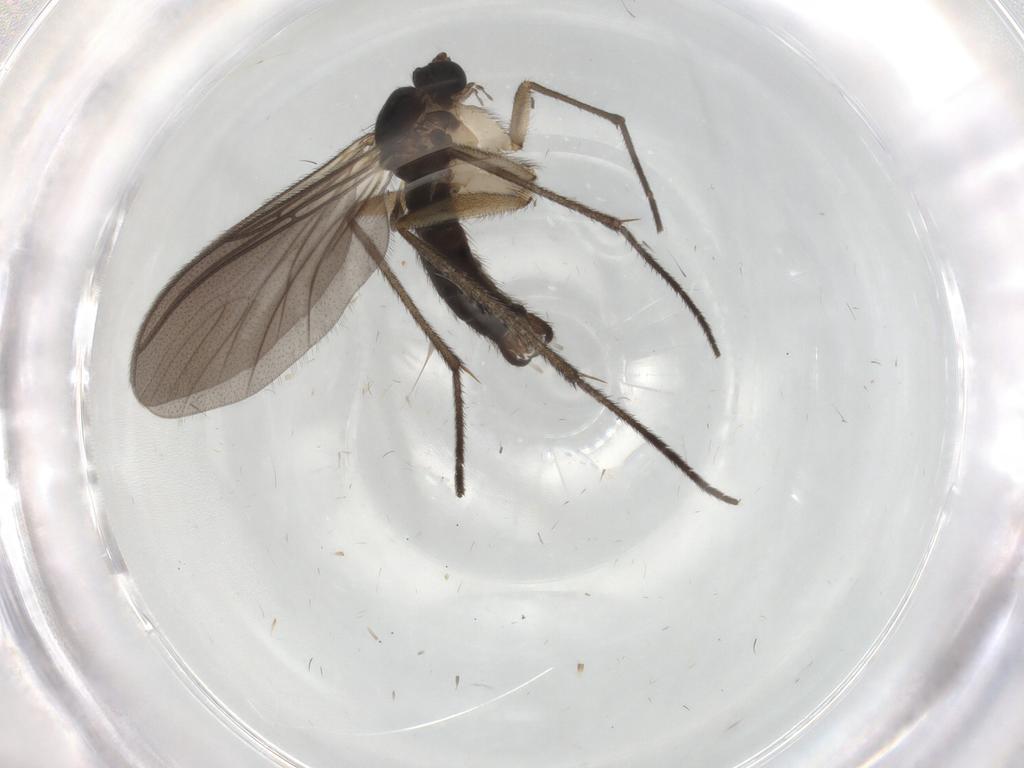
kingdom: Animalia
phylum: Arthropoda
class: Insecta
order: Diptera
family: Sciaridae
